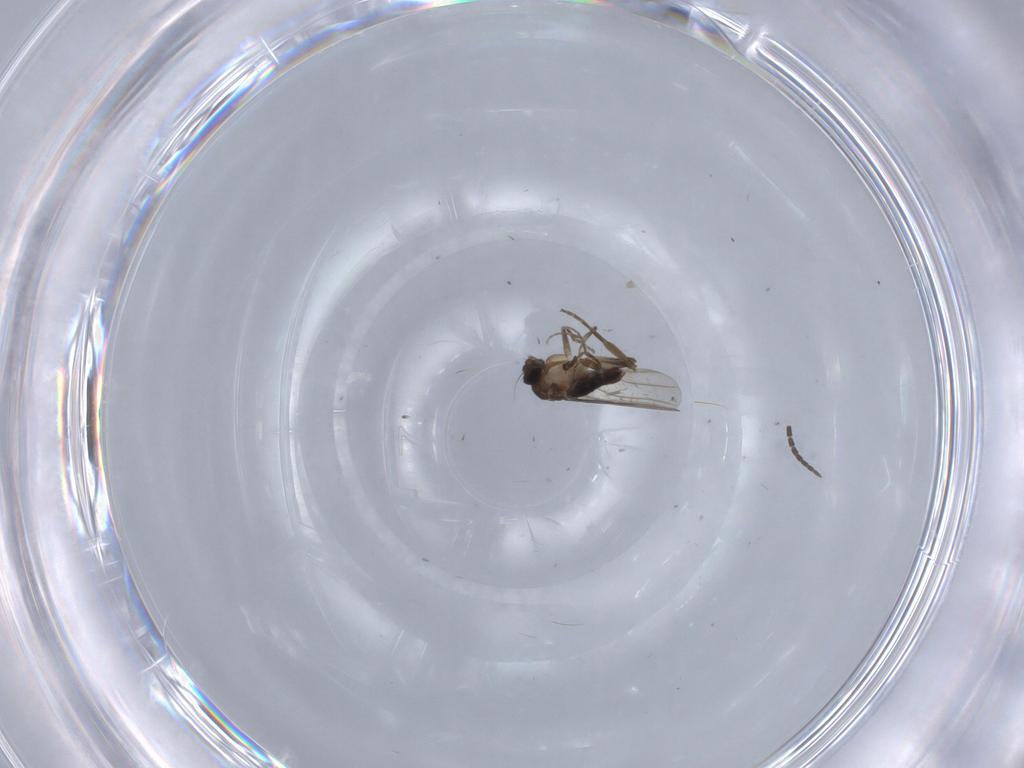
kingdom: Animalia
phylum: Arthropoda
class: Insecta
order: Diptera
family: Phoridae
